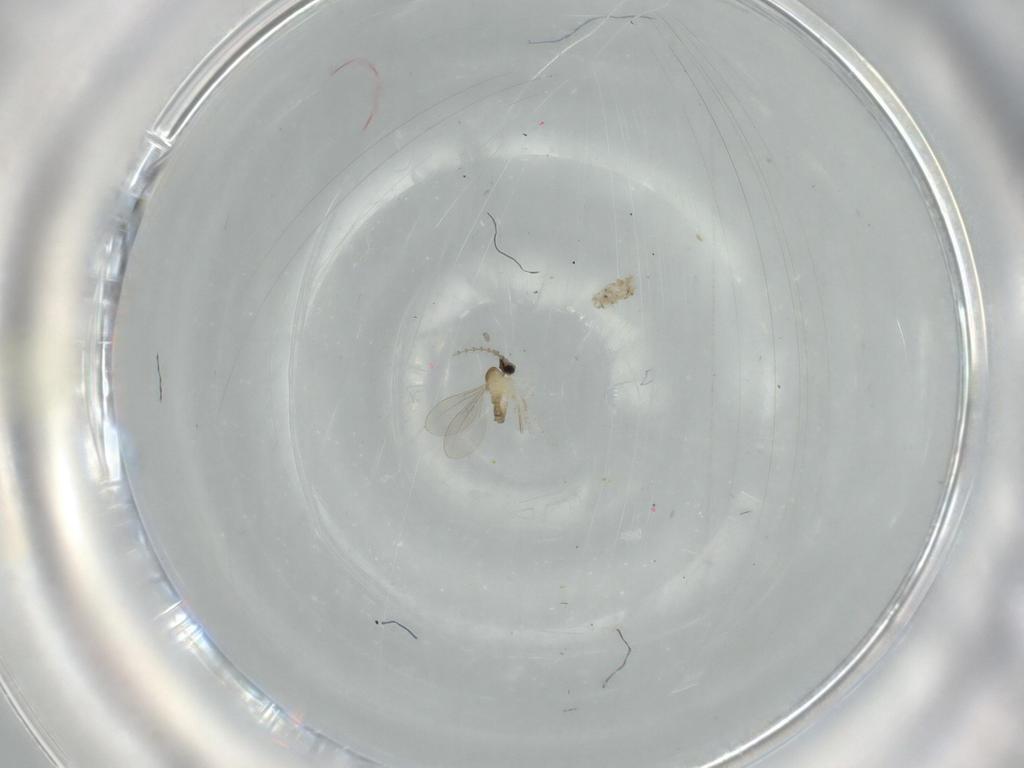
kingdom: Animalia
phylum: Arthropoda
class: Insecta
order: Diptera
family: Cecidomyiidae
